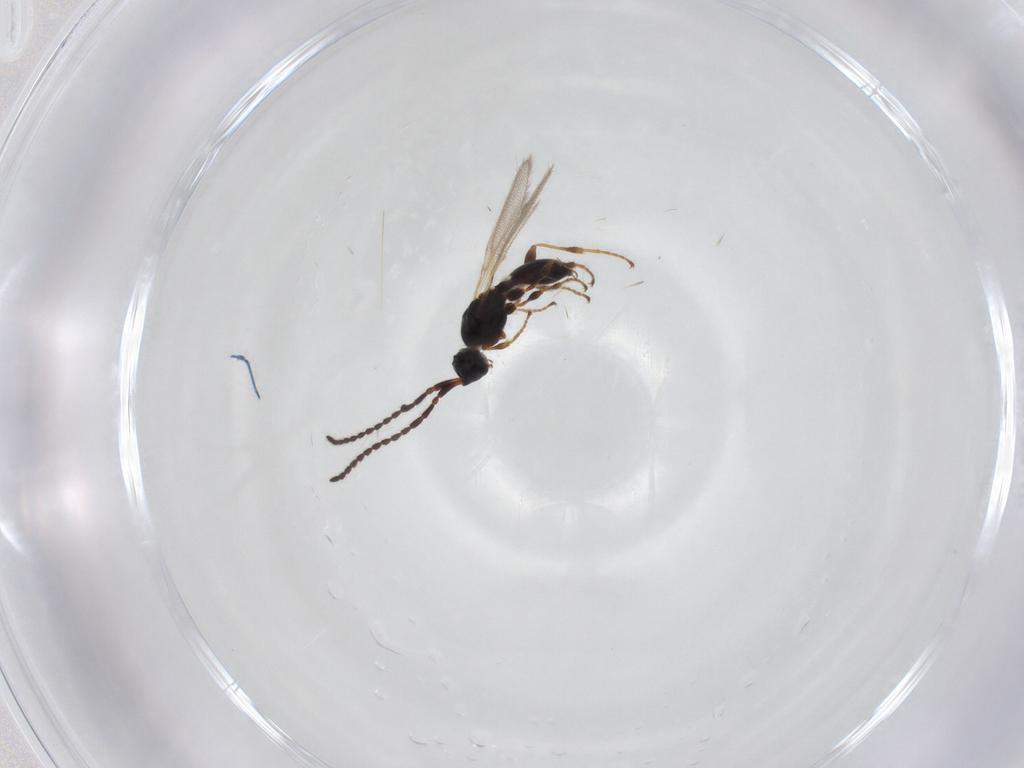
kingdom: Animalia
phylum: Arthropoda
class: Insecta
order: Hymenoptera
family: Diapriidae
